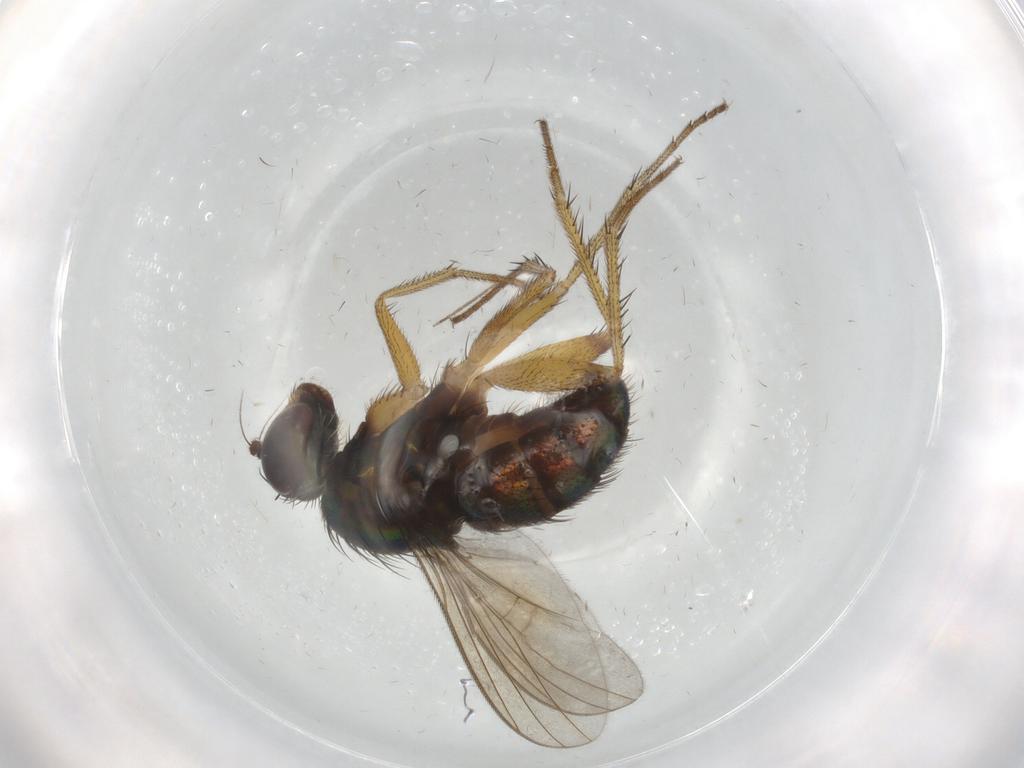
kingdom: Animalia
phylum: Arthropoda
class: Insecta
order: Diptera
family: Dolichopodidae
